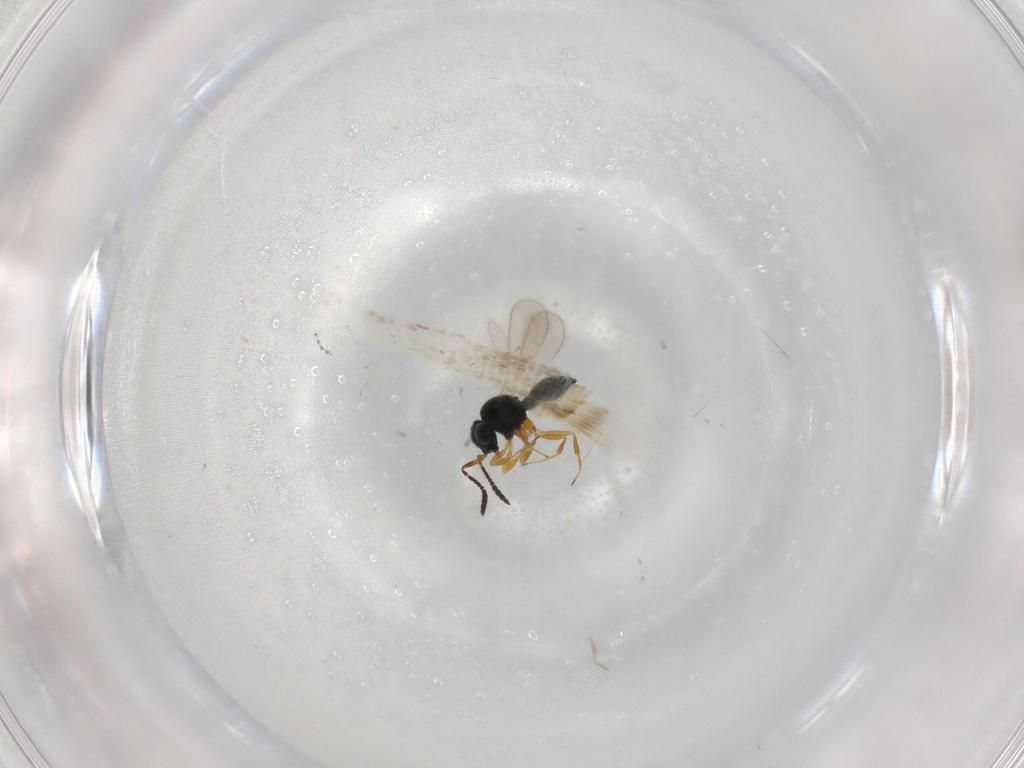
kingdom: Animalia
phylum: Arthropoda
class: Insecta
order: Hymenoptera
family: Scelionidae
